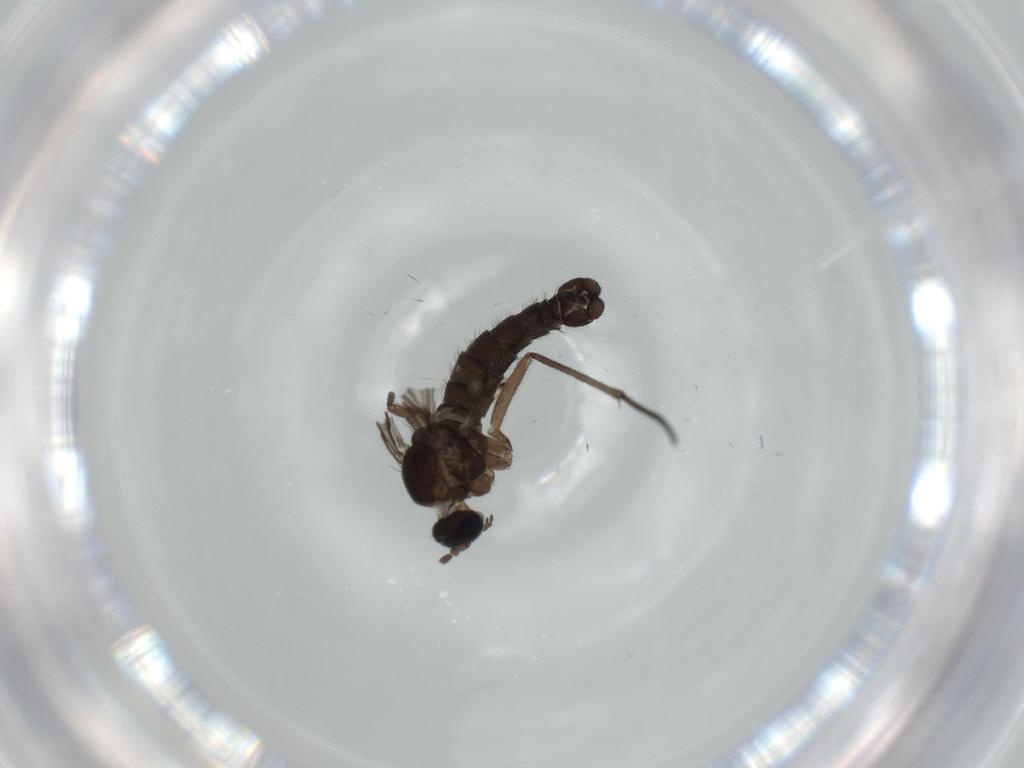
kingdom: Animalia
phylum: Arthropoda
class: Insecta
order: Diptera
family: Sciaridae
